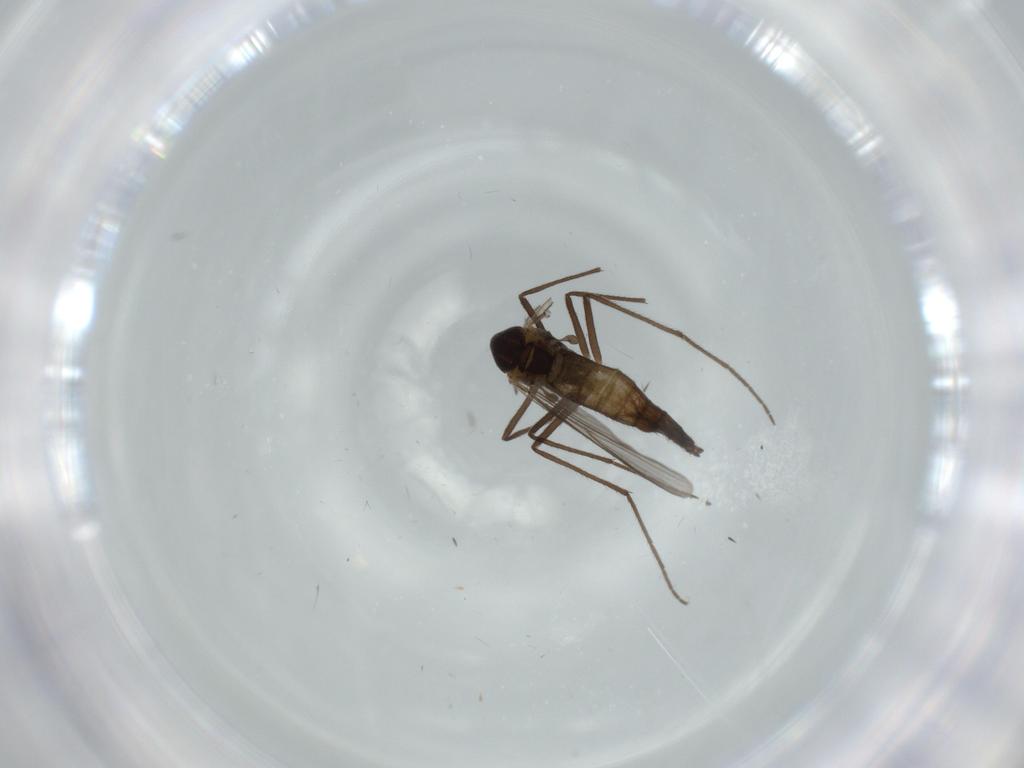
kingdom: Animalia
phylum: Arthropoda
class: Insecta
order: Diptera
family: Chironomidae
